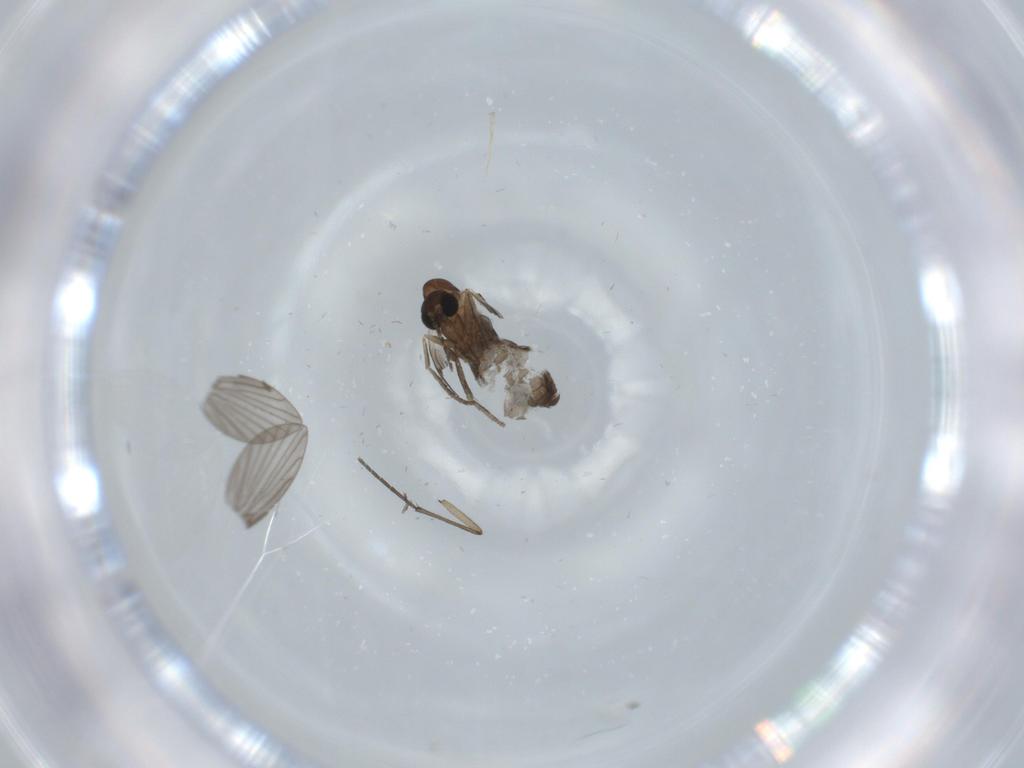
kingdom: Animalia
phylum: Arthropoda
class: Insecta
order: Diptera
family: Psychodidae
